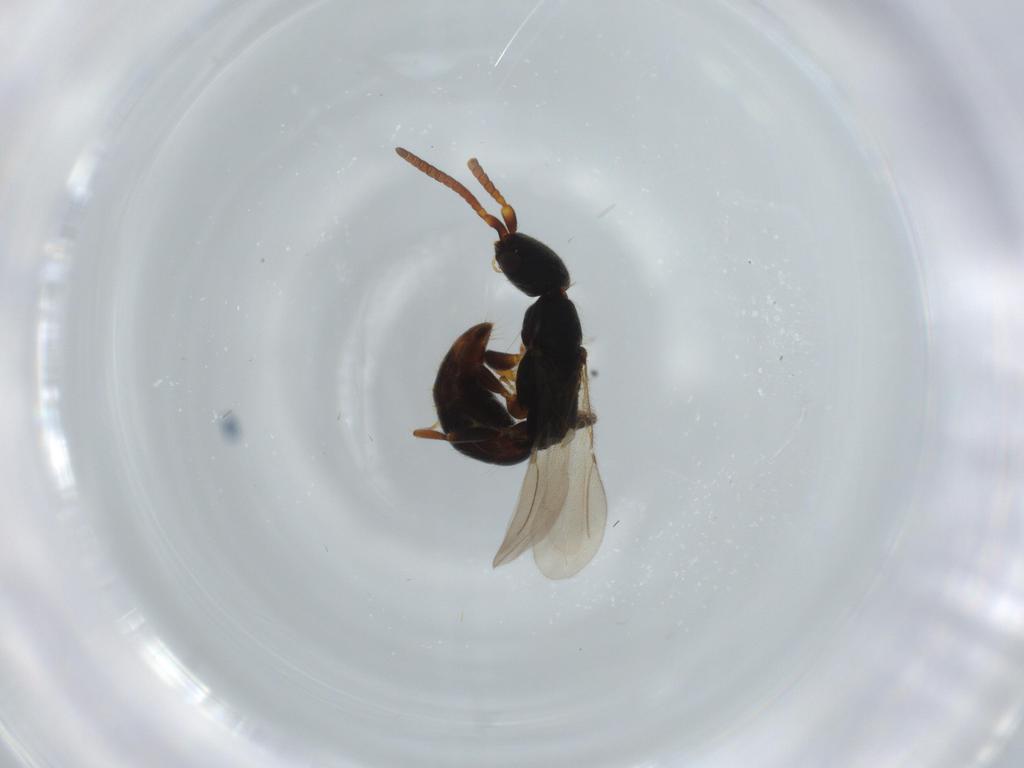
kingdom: Animalia
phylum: Arthropoda
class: Insecta
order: Hymenoptera
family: Bethylidae
